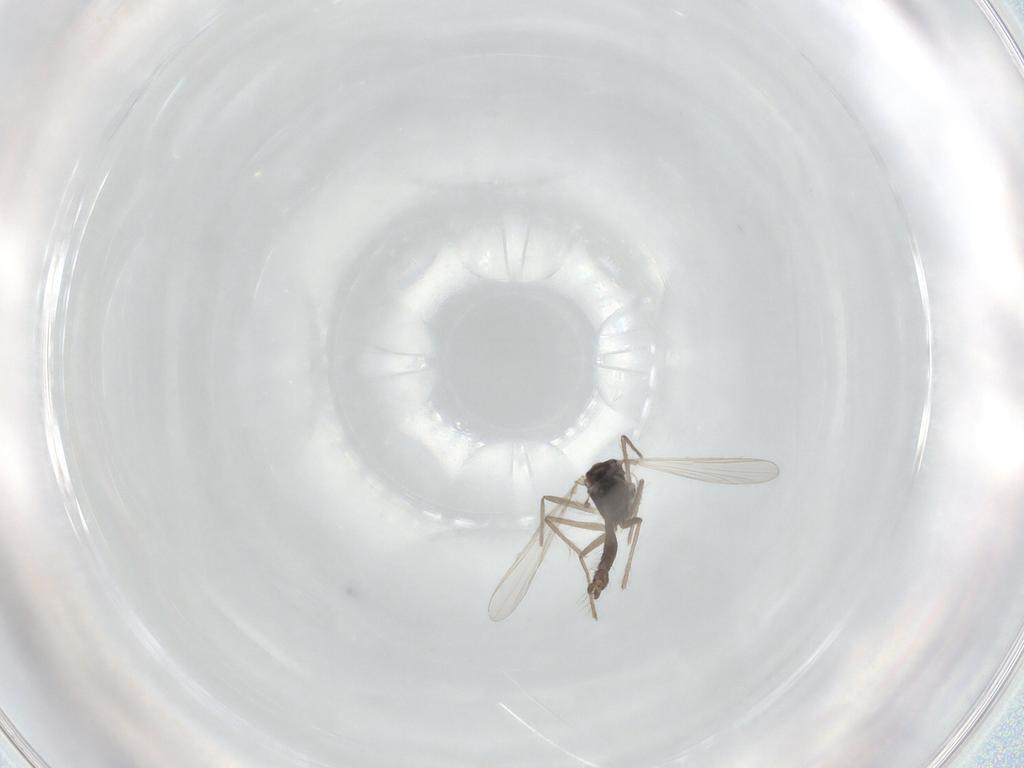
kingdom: Animalia
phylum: Arthropoda
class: Insecta
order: Diptera
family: Chironomidae
